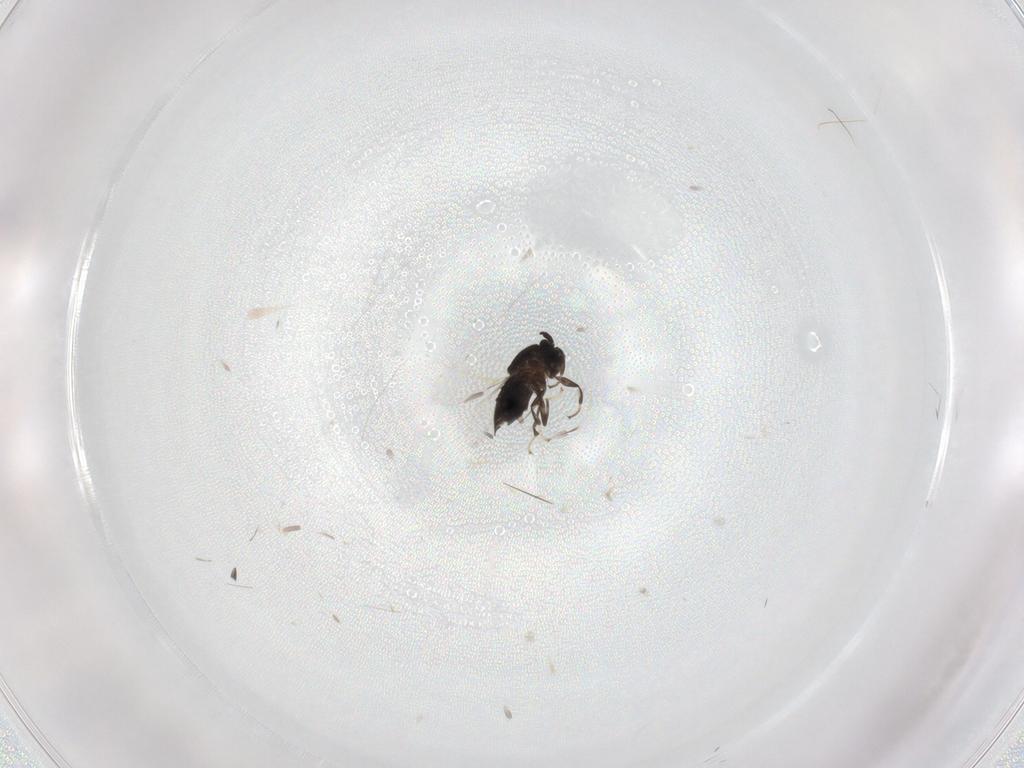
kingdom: Animalia
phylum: Arthropoda
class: Insecta
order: Diptera
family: Scatopsidae
